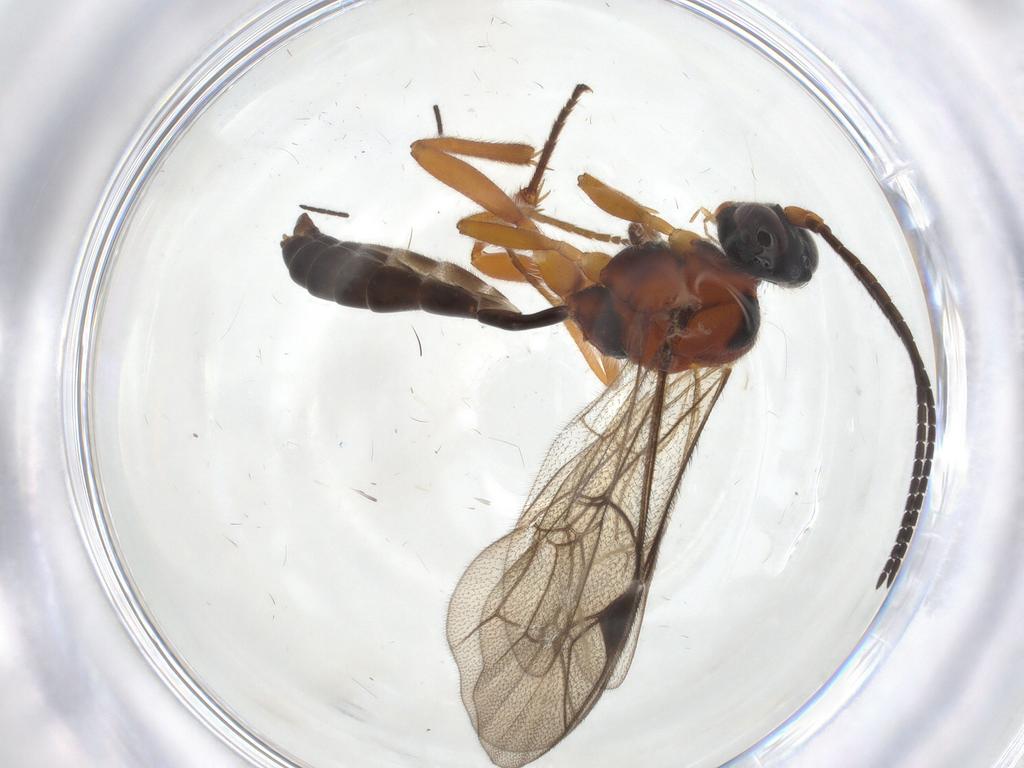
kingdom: Animalia
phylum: Arthropoda
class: Insecta
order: Hymenoptera
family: Ichneumonidae
